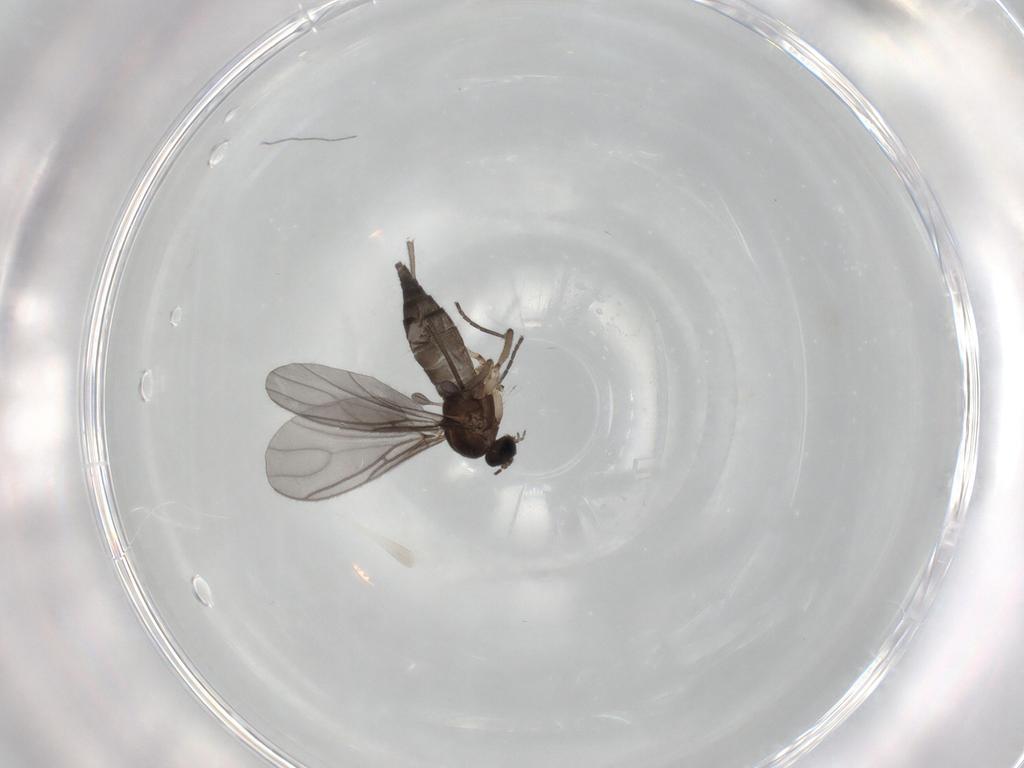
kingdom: Animalia
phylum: Arthropoda
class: Insecta
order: Diptera
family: Sciaridae
